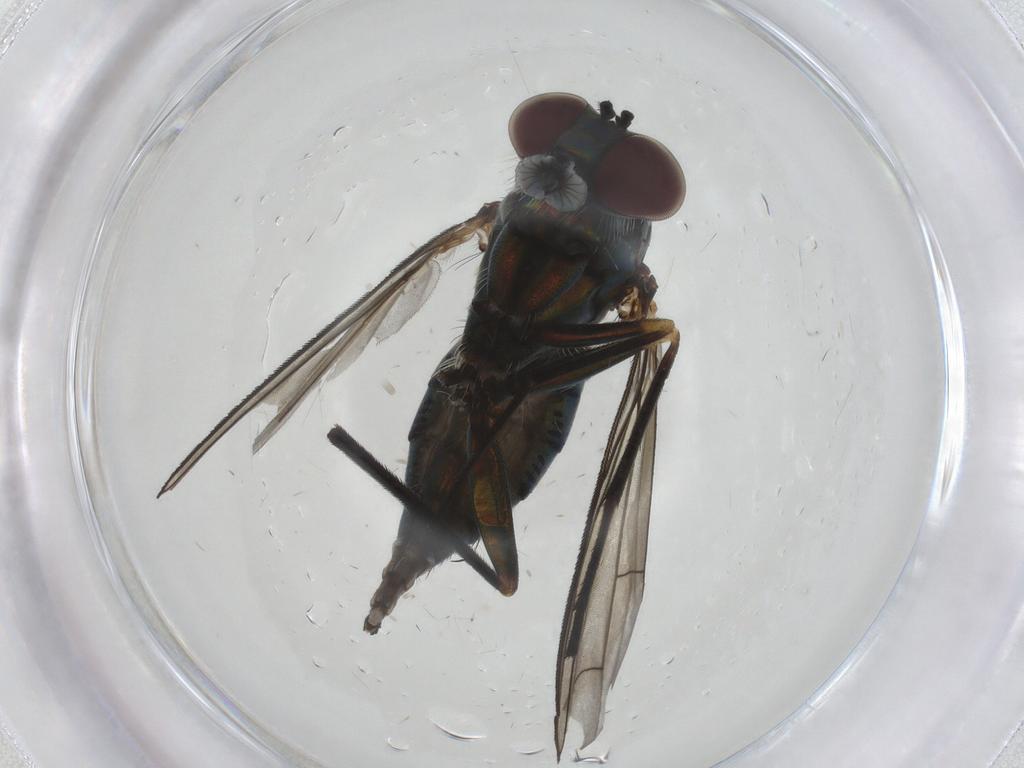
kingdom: Animalia
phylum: Arthropoda
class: Insecta
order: Diptera
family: Dolichopodidae
